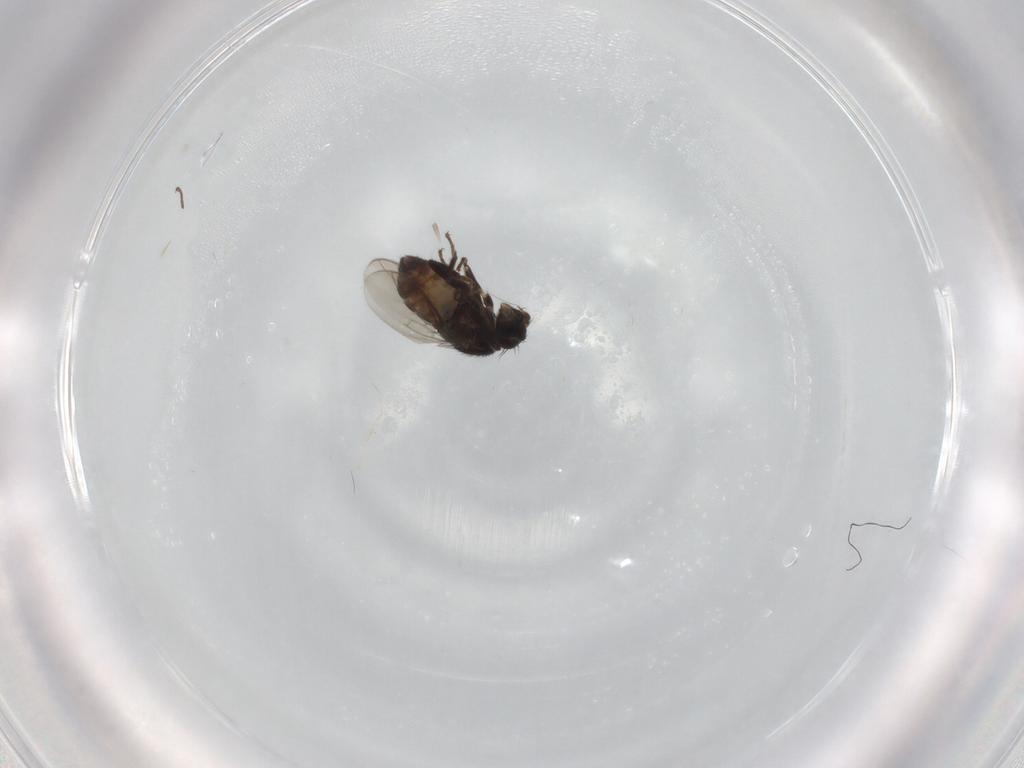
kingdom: Animalia
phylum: Arthropoda
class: Insecta
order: Diptera
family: Sphaeroceridae
